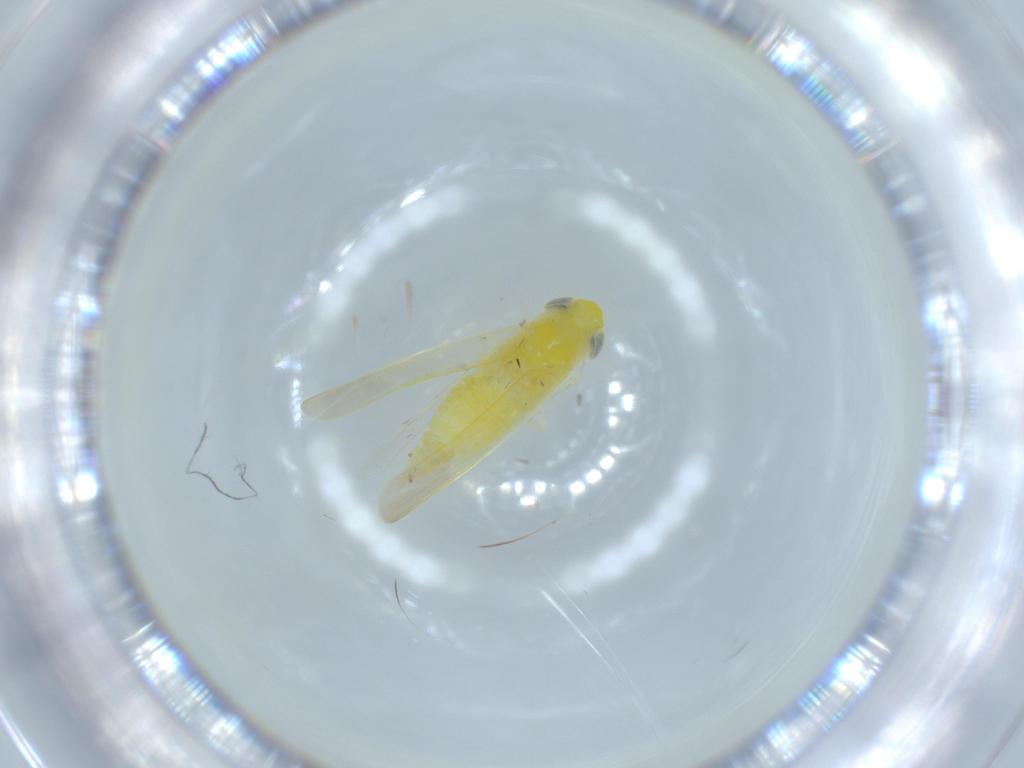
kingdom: Animalia
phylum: Arthropoda
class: Insecta
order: Hemiptera
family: Cicadellidae
